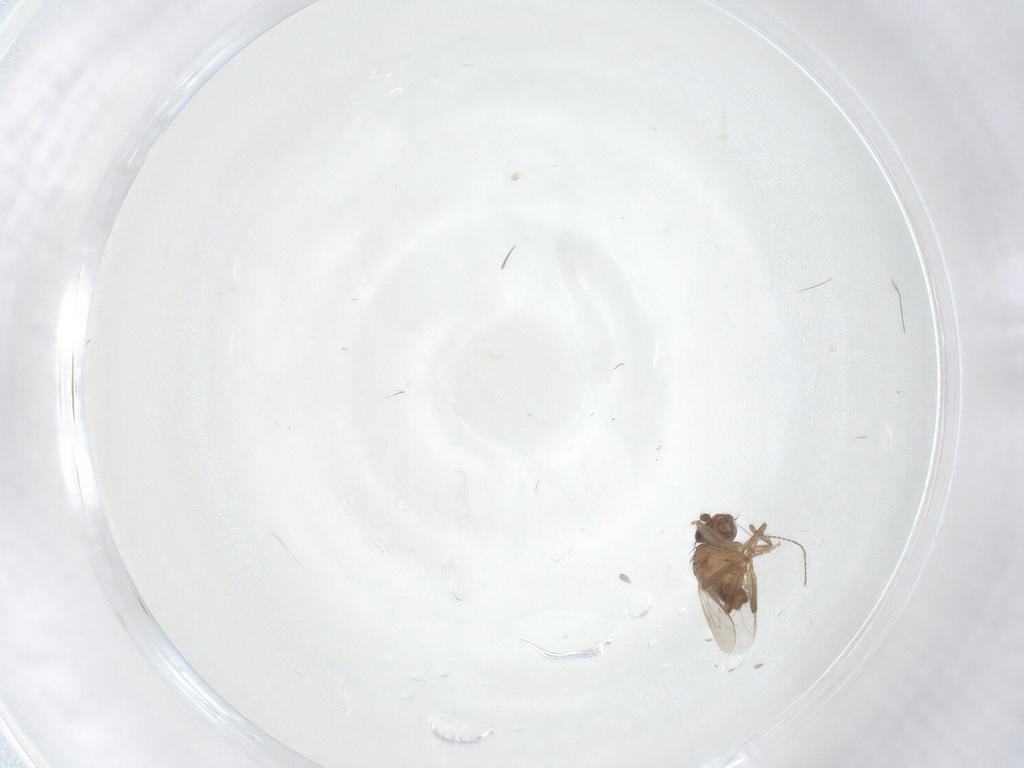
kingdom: Animalia
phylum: Arthropoda
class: Insecta
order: Diptera
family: Sphaeroceridae
